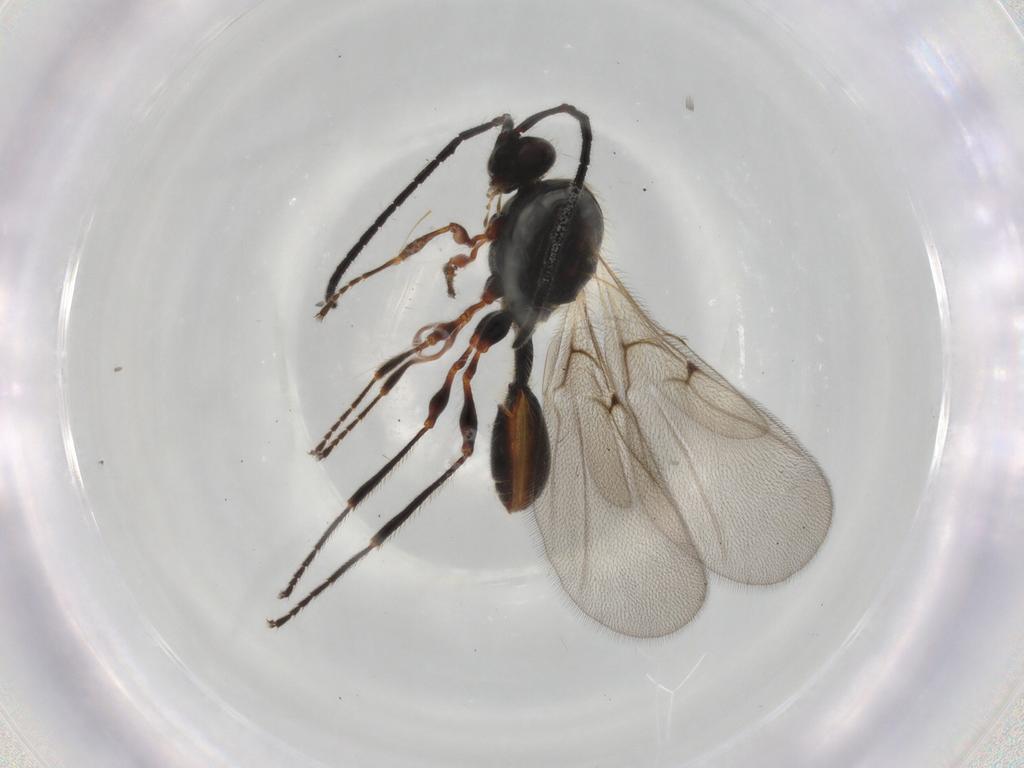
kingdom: Animalia
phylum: Arthropoda
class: Insecta
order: Hymenoptera
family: Diapriidae
